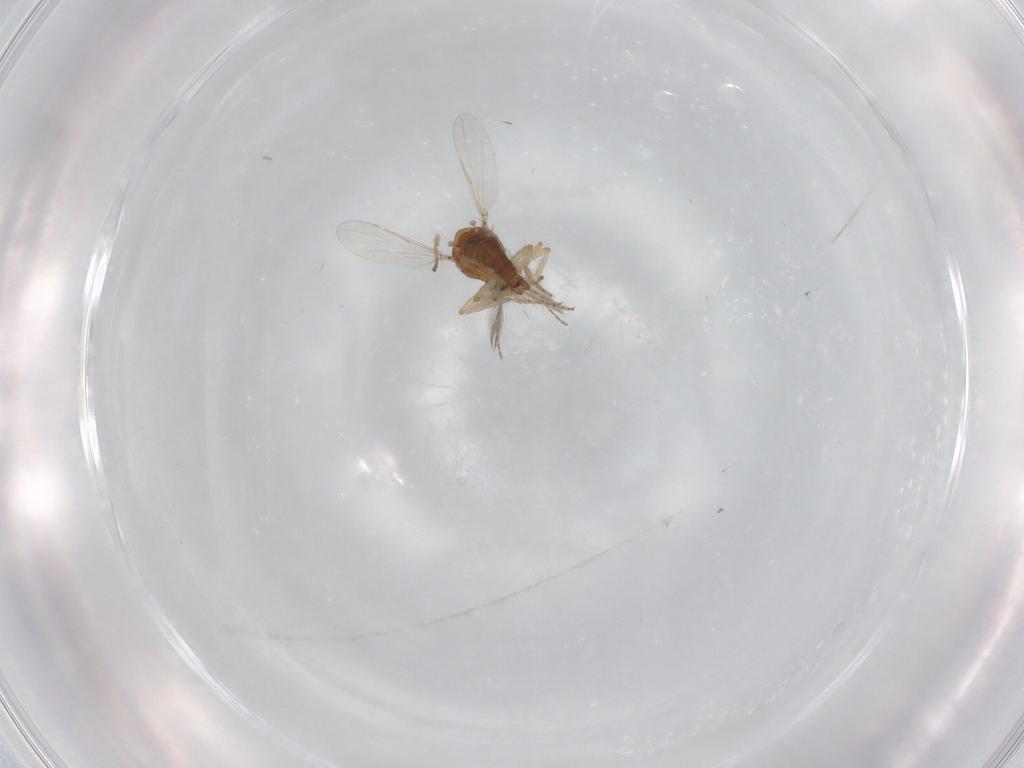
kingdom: Animalia
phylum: Arthropoda
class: Insecta
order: Diptera
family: Ceratopogonidae
